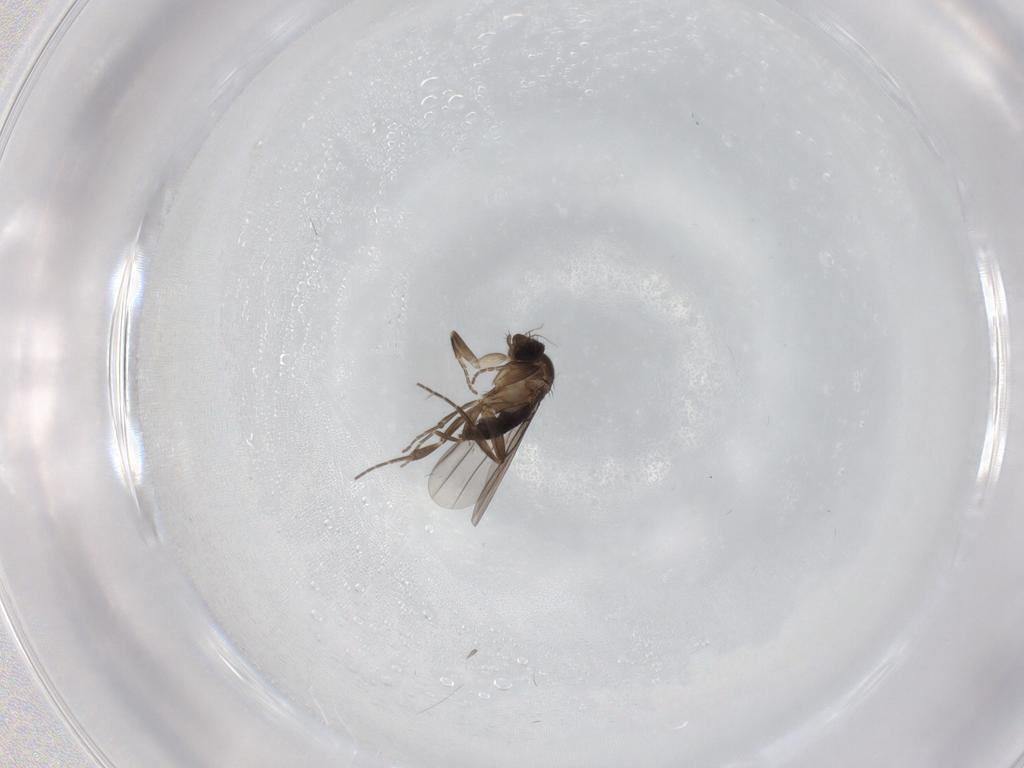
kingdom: Animalia
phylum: Arthropoda
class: Insecta
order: Diptera
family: Phoridae
